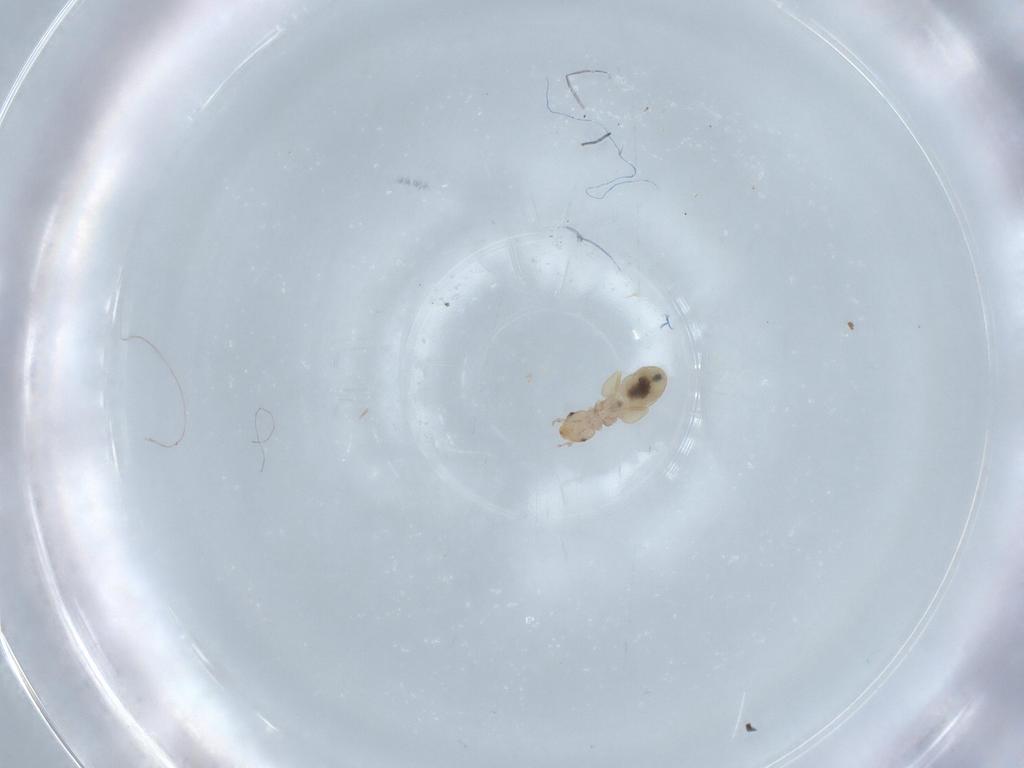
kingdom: Animalia
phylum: Arthropoda
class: Insecta
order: Psocodea
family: Liposcelididae
